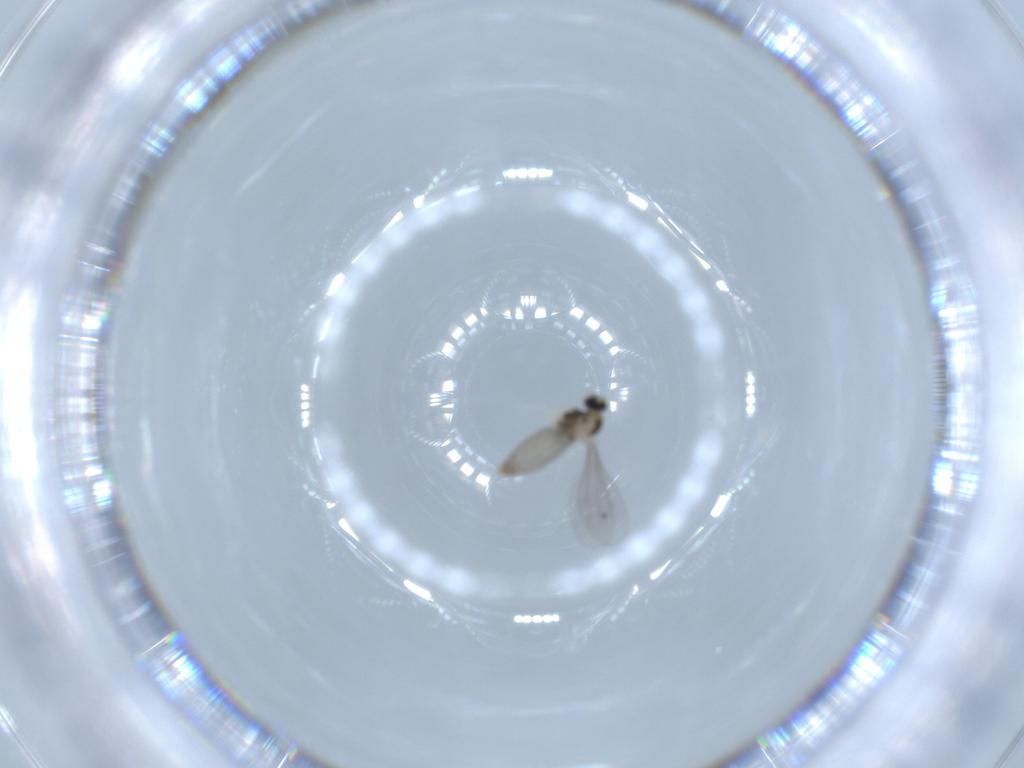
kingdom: Animalia
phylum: Arthropoda
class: Insecta
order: Diptera
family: Cecidomyiidae
